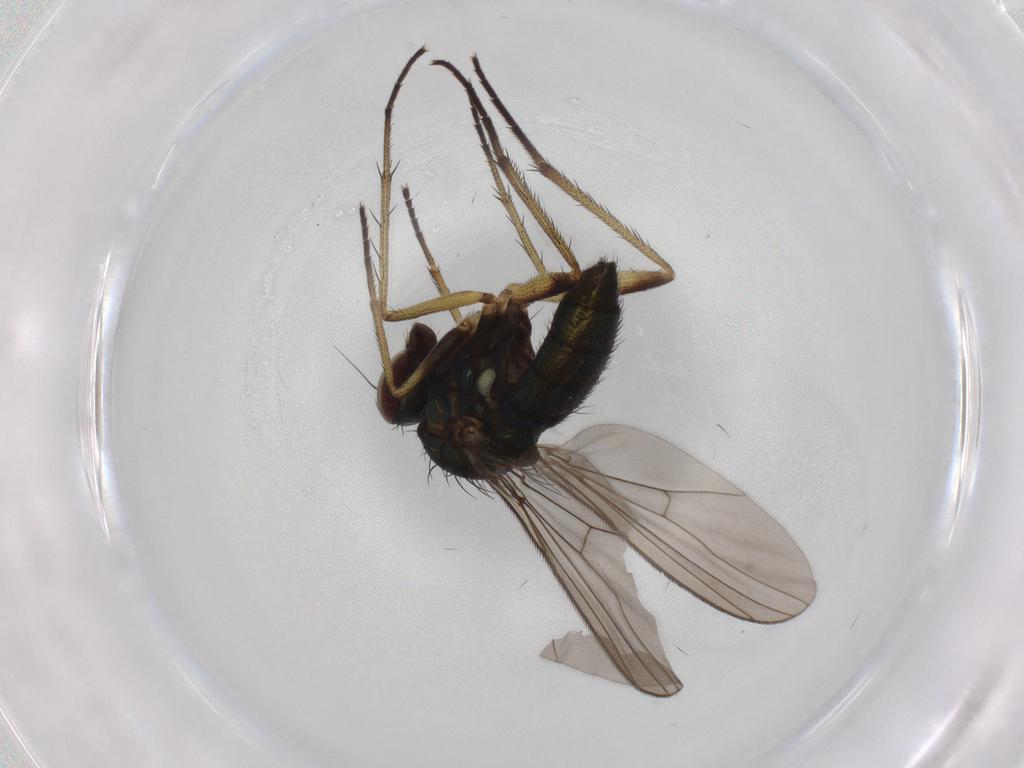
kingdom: Animalia
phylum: Arthropoda
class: Insecta
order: Diptera
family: Dolichopodidae
